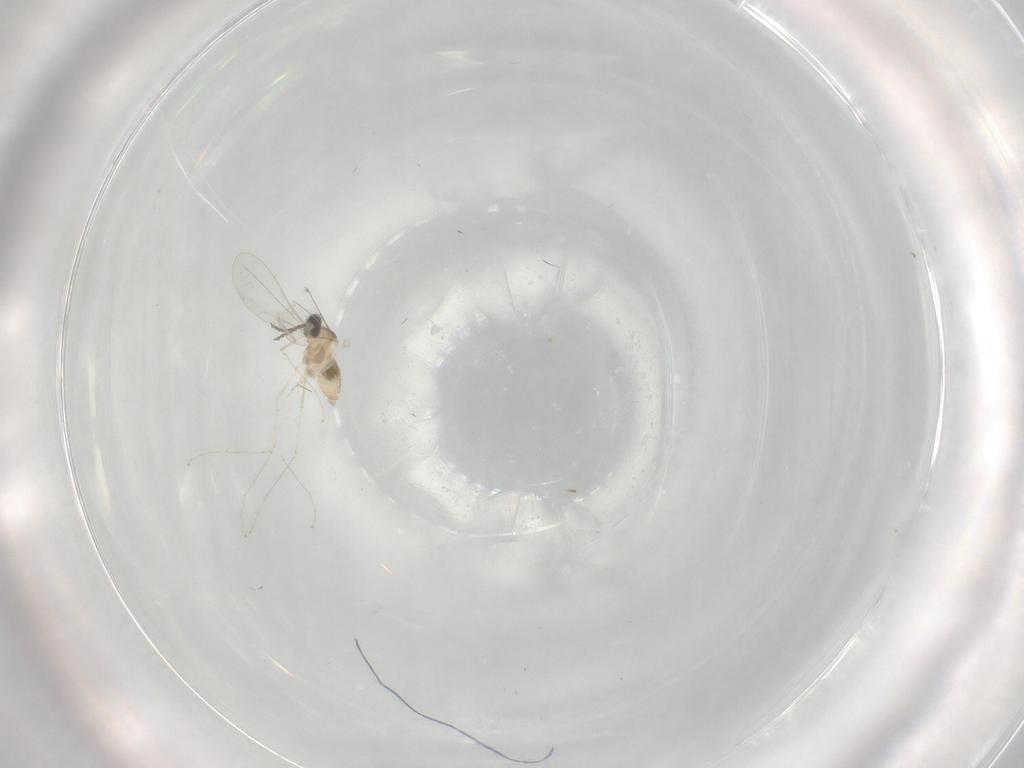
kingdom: Animalia
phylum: Arthropoda
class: Insecta
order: Diptera
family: Cecidomyiidae
